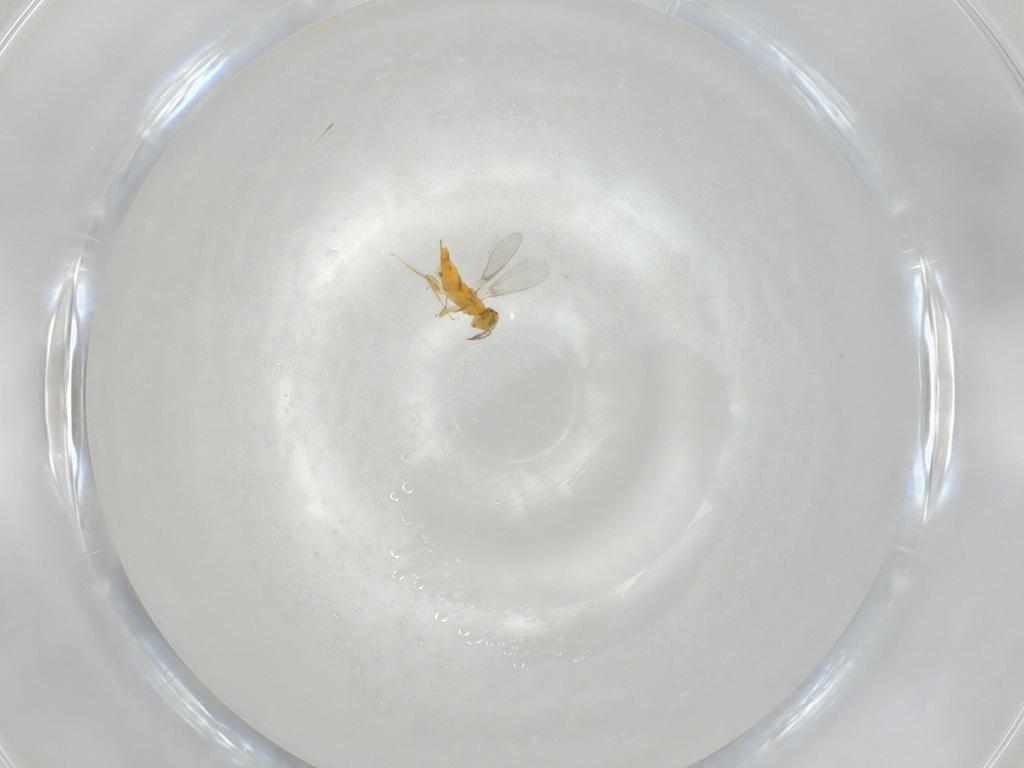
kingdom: Animalia
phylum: Arthropoda
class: Insecta
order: Hymenoptera
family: Aphelinidae
